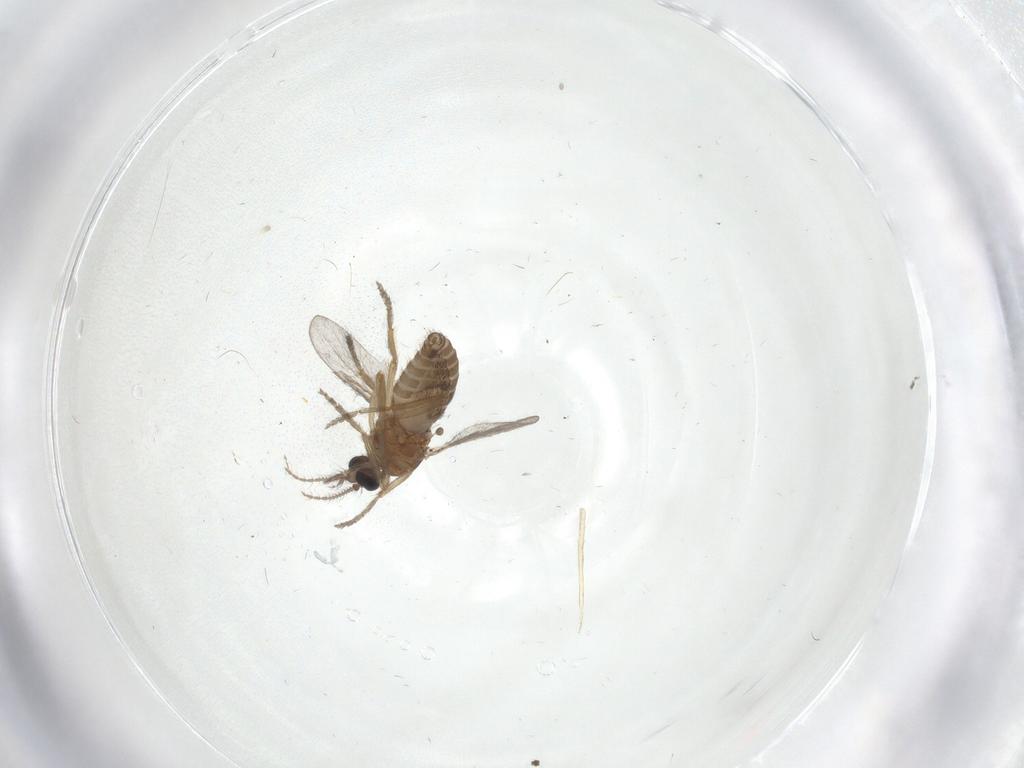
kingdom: Animalia
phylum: Arthropoda
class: Insecta
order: Diptera
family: Ceratopogonidae
